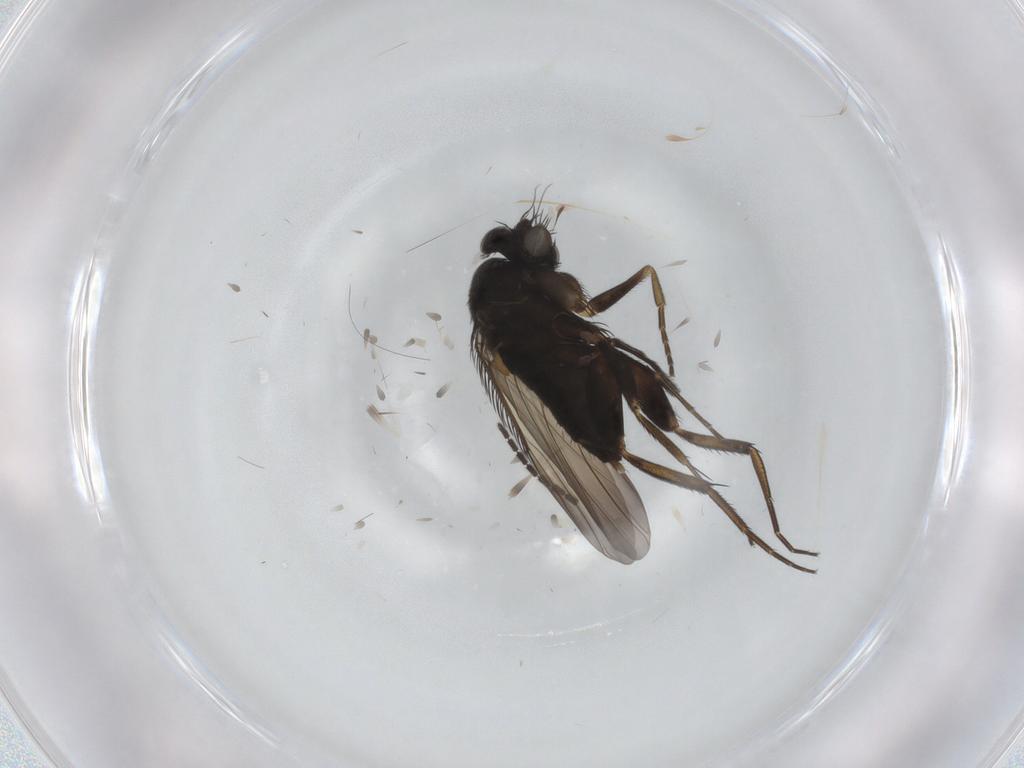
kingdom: Animalia
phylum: Arthropoda
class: Insecta
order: Diptera
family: Phoridae
